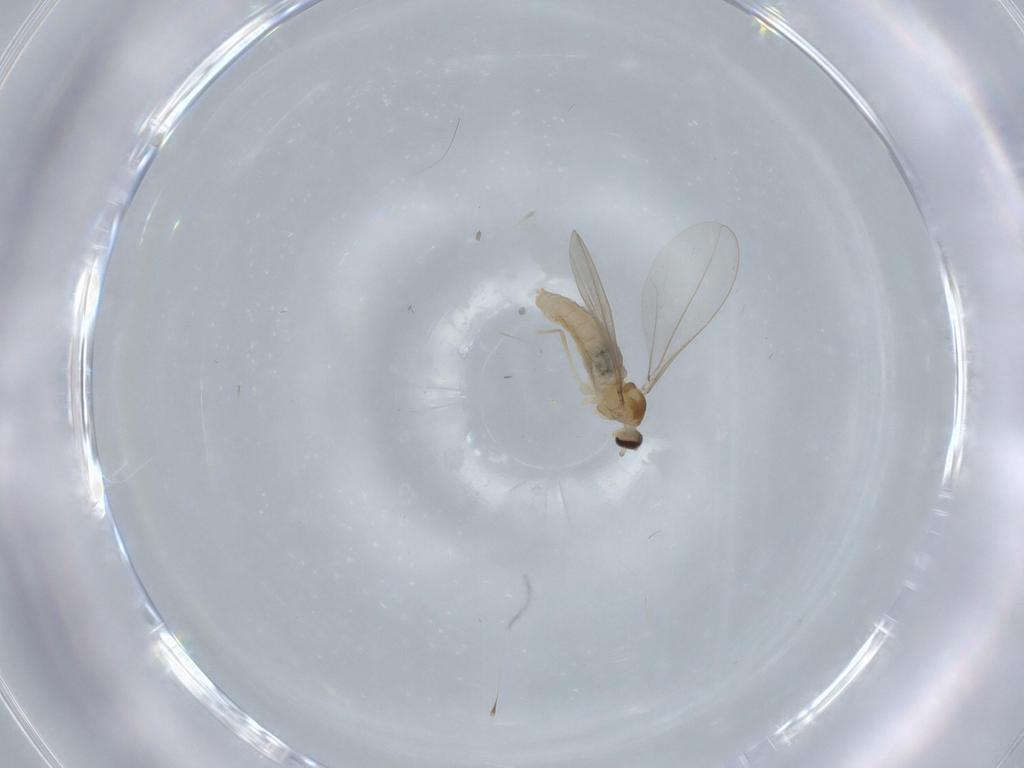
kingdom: Animalia
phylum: Arthropoda
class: Insecta
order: Diptera
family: Cecidomyiidae
